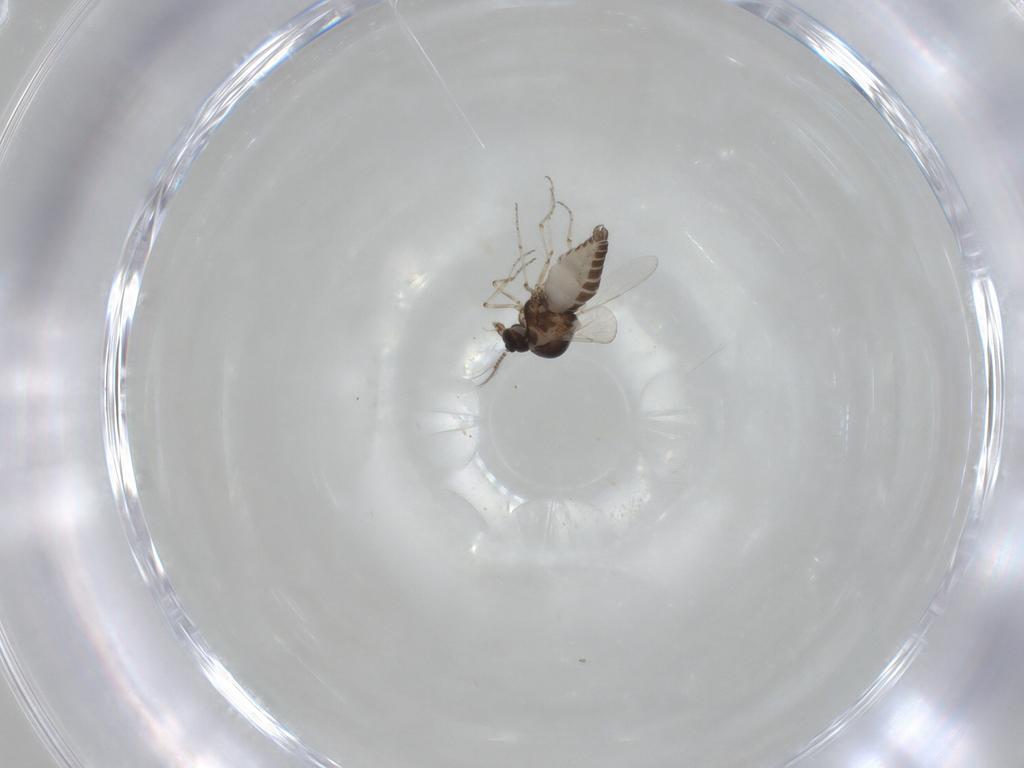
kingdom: Animalia
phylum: Arthropoda
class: Insecta
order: Diptera
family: Ceratopogonidae
